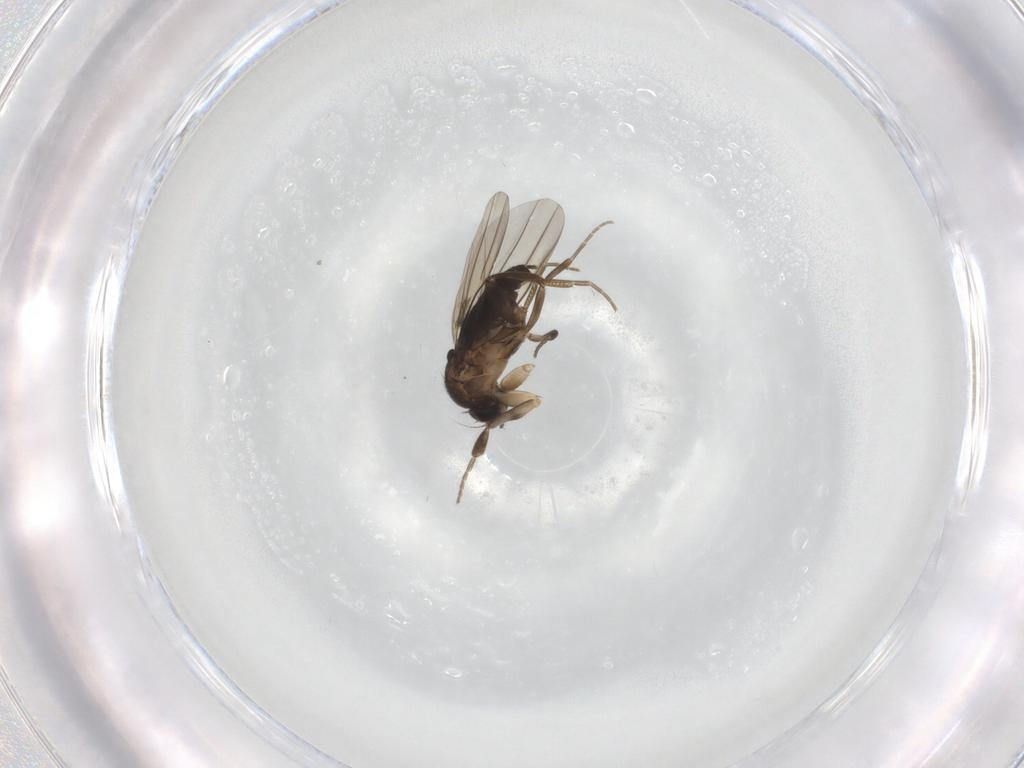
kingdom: Animalia
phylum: Arthropoda
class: Insecta
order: Diptera
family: Phoridae
